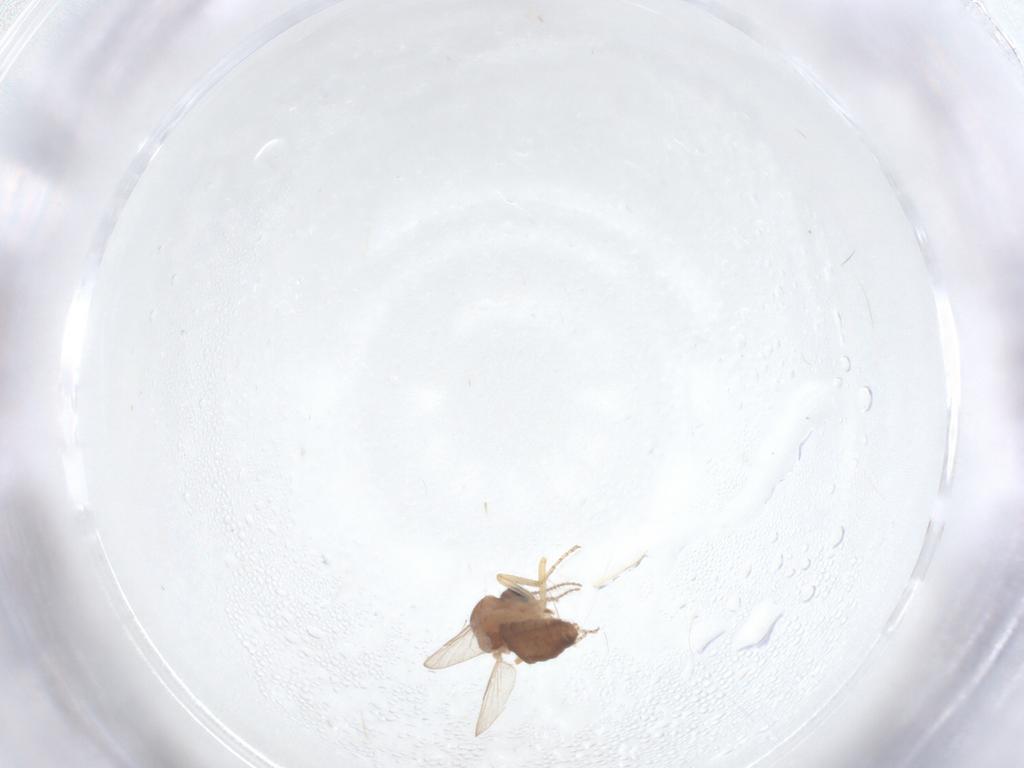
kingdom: Animalia
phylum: Arthropoda
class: Insecta
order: Diptera
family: Ceratopogonidae
